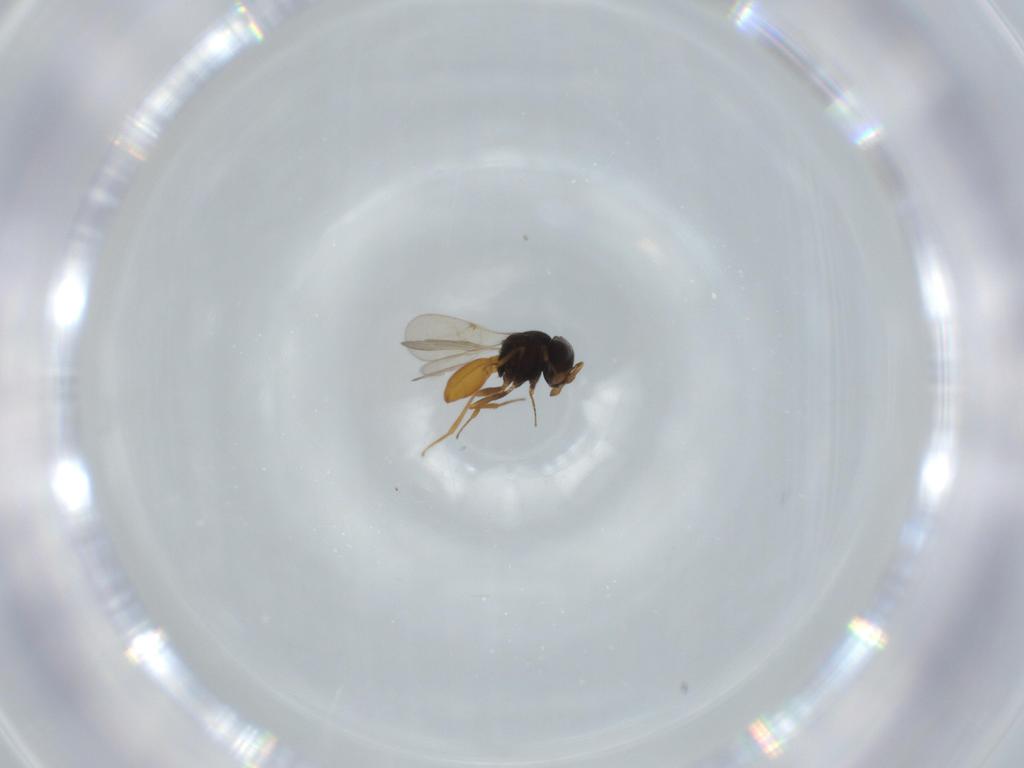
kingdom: Animalia
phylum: Arthropoda
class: Insecta
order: Hymenoptera
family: Scelionidae
